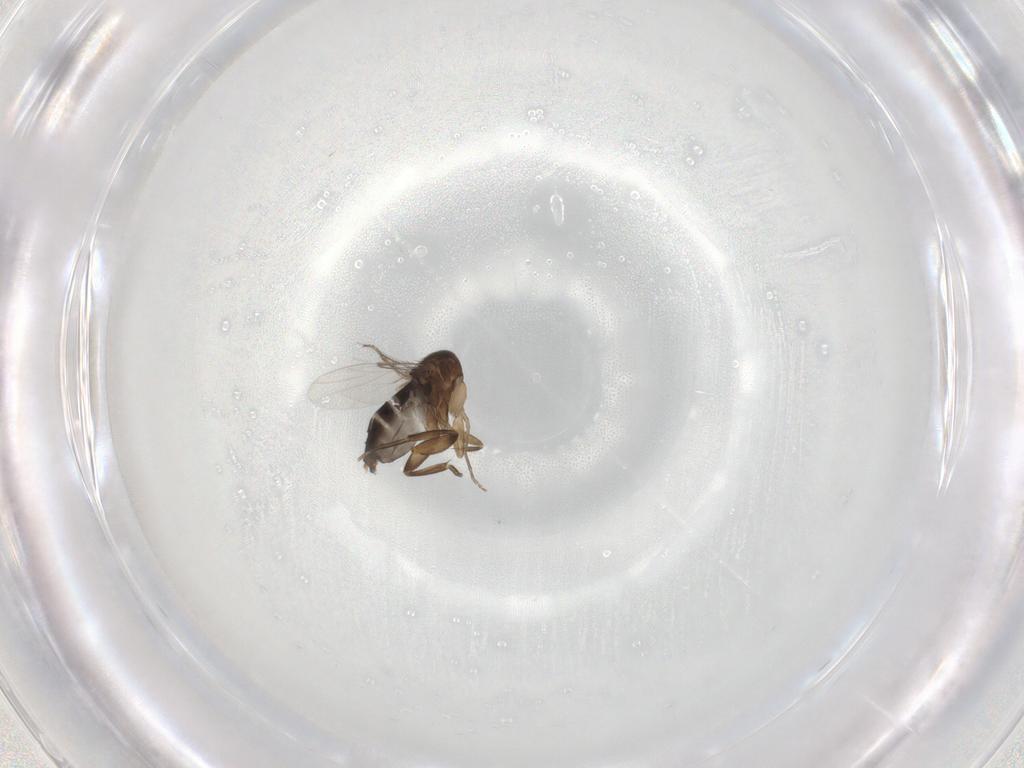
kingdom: Animalia
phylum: Arthropoda
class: Insecta
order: Diptera
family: Phoridae
